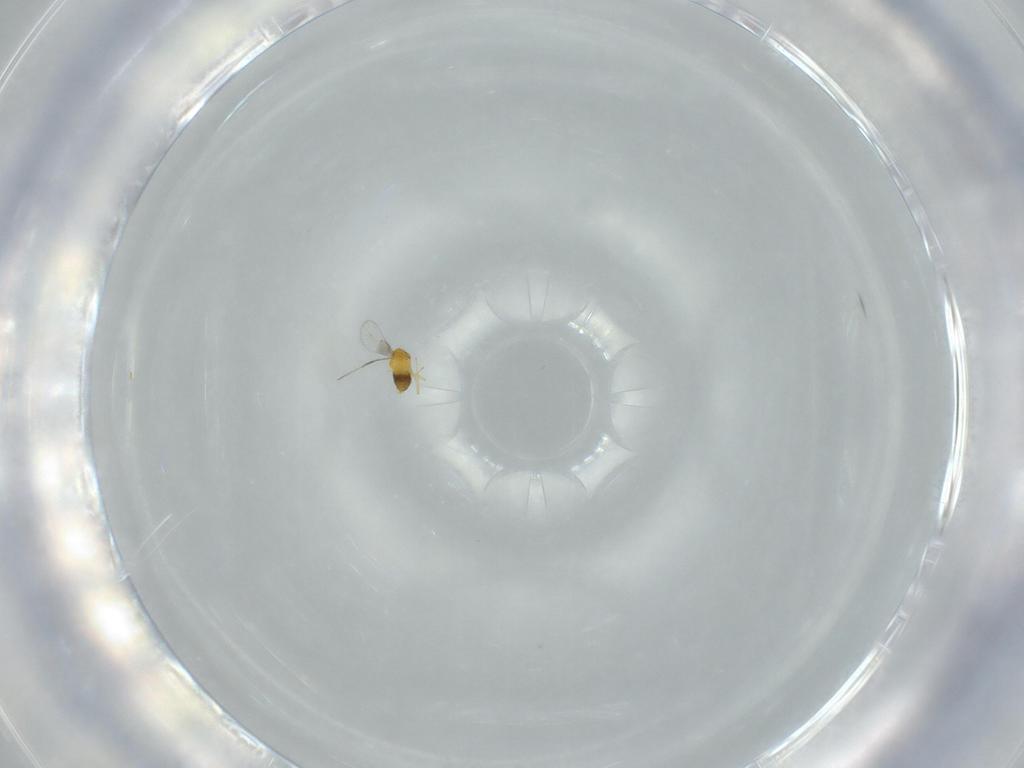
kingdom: Animalia
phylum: Arthropoda
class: Insecta
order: Hymenoptera
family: Trichogrammatidae
